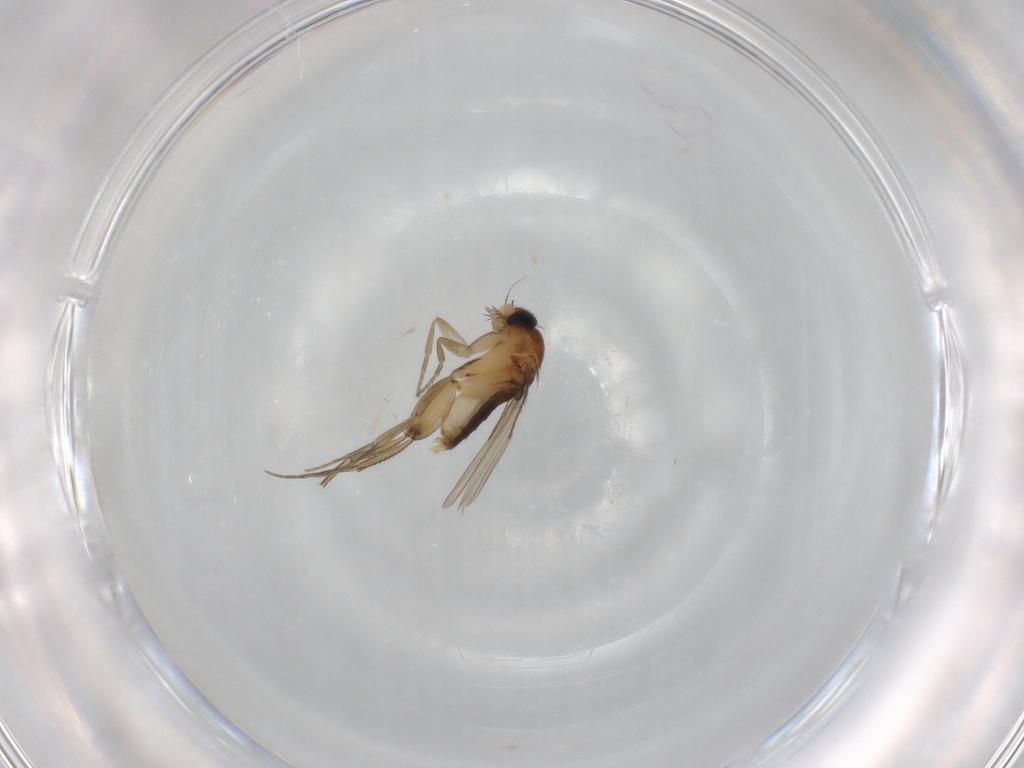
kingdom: Animalia
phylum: Arthropoda
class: Insecta
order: Diptera
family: Phoridae
